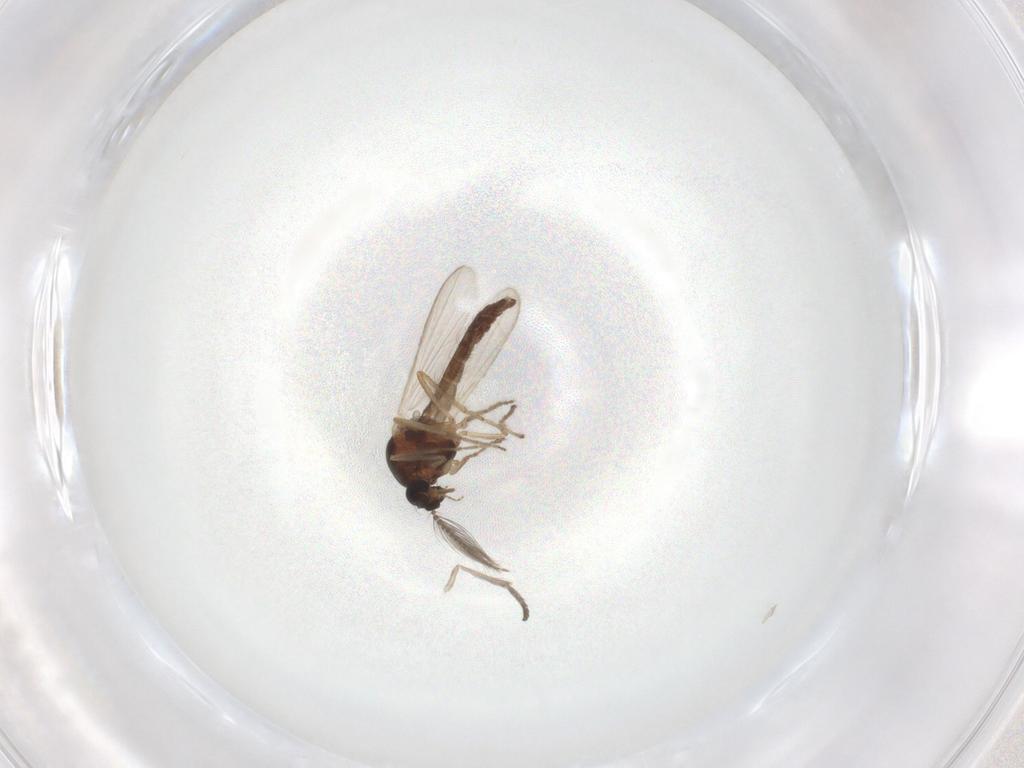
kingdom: Animalia
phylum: Arthropoda
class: Insecta
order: Diptera
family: Ceratopogonidae
